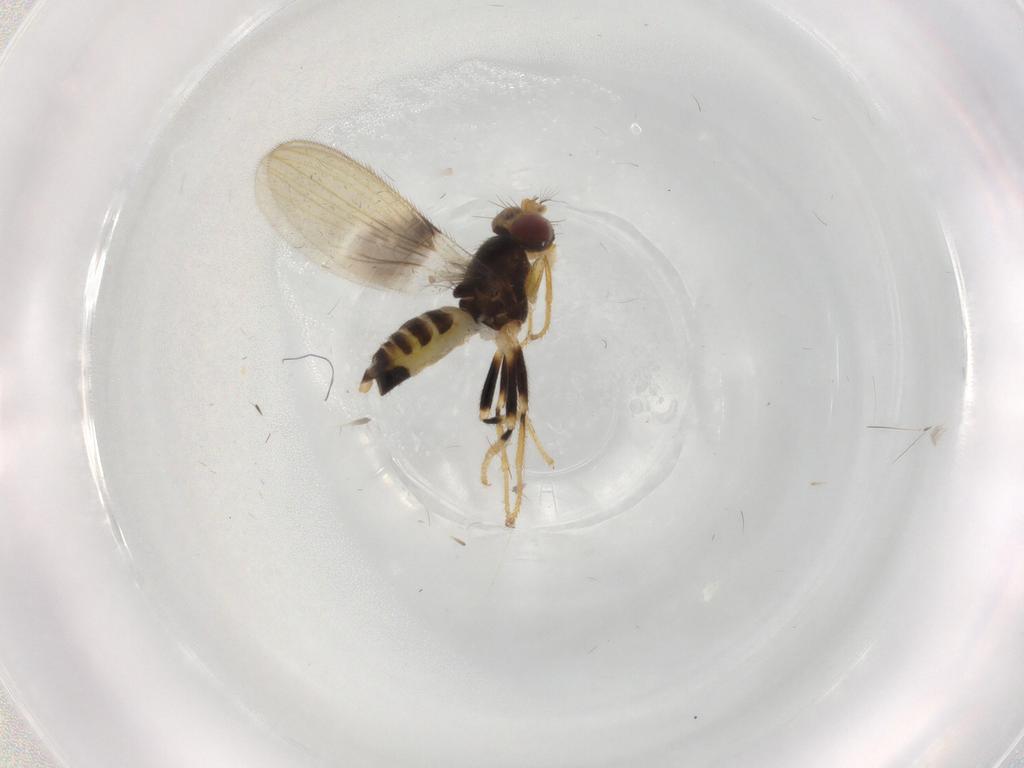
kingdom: Animalia
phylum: Arthropoda
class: Insecta
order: Diptera
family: Periscelididae
